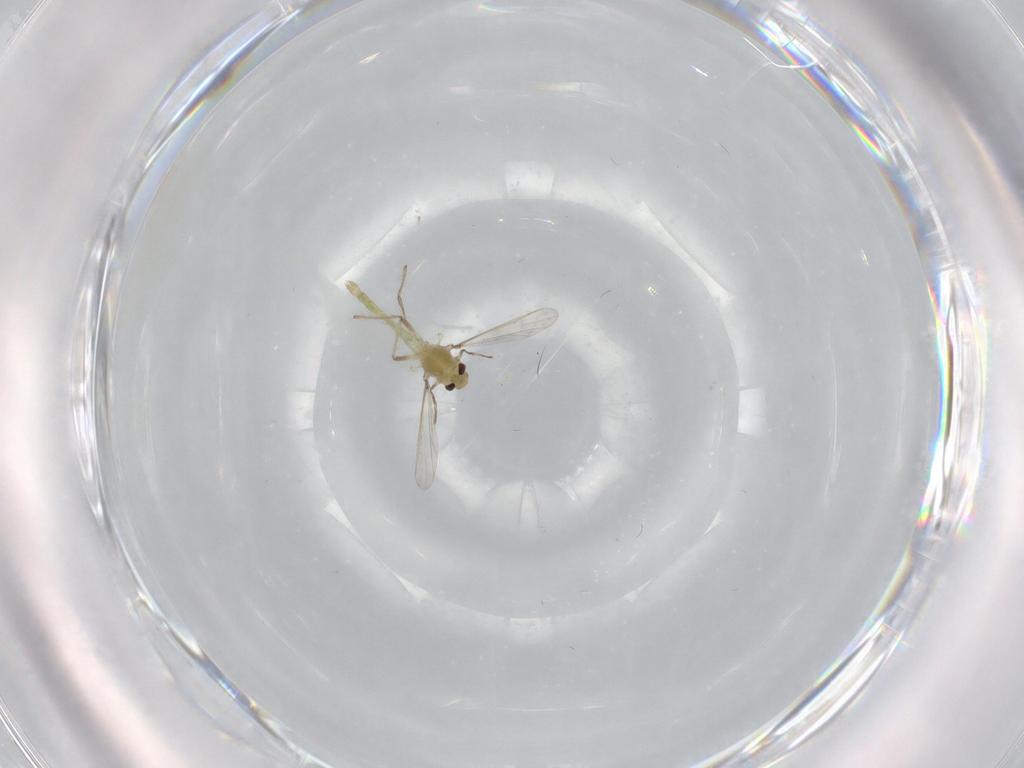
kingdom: Animalia
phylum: Arthropoda
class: Insecta
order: Diptera
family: Chironomidae
